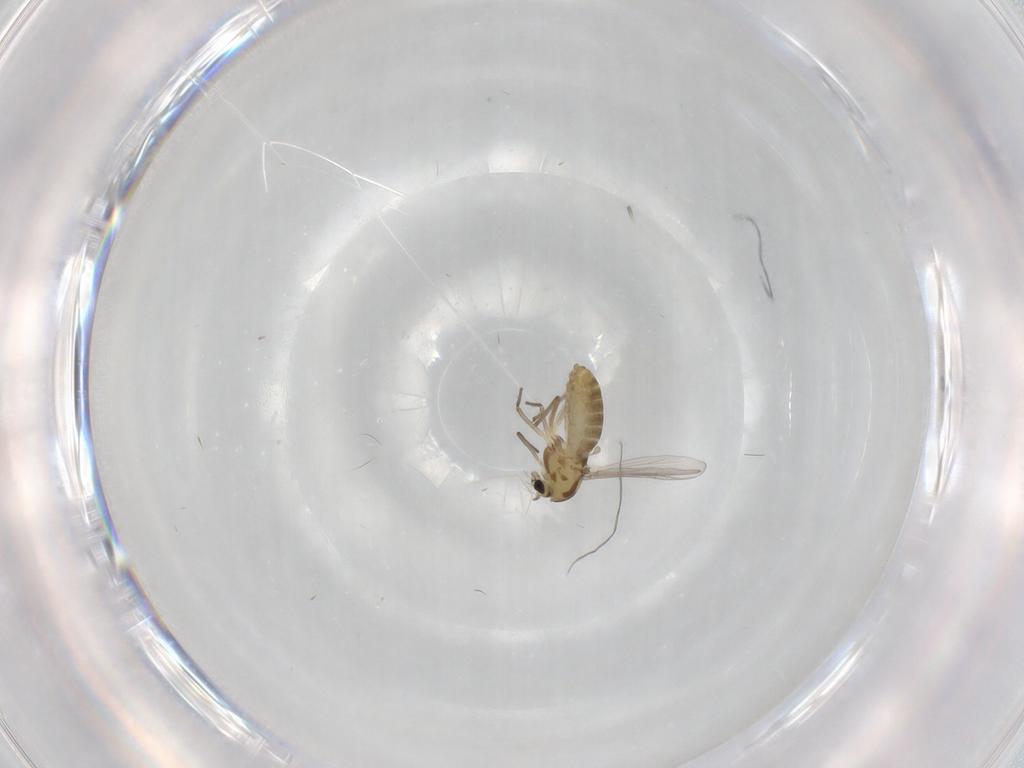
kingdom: Animalia
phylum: Arthropoda
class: Insecta
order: Diptera
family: Chironomidae
